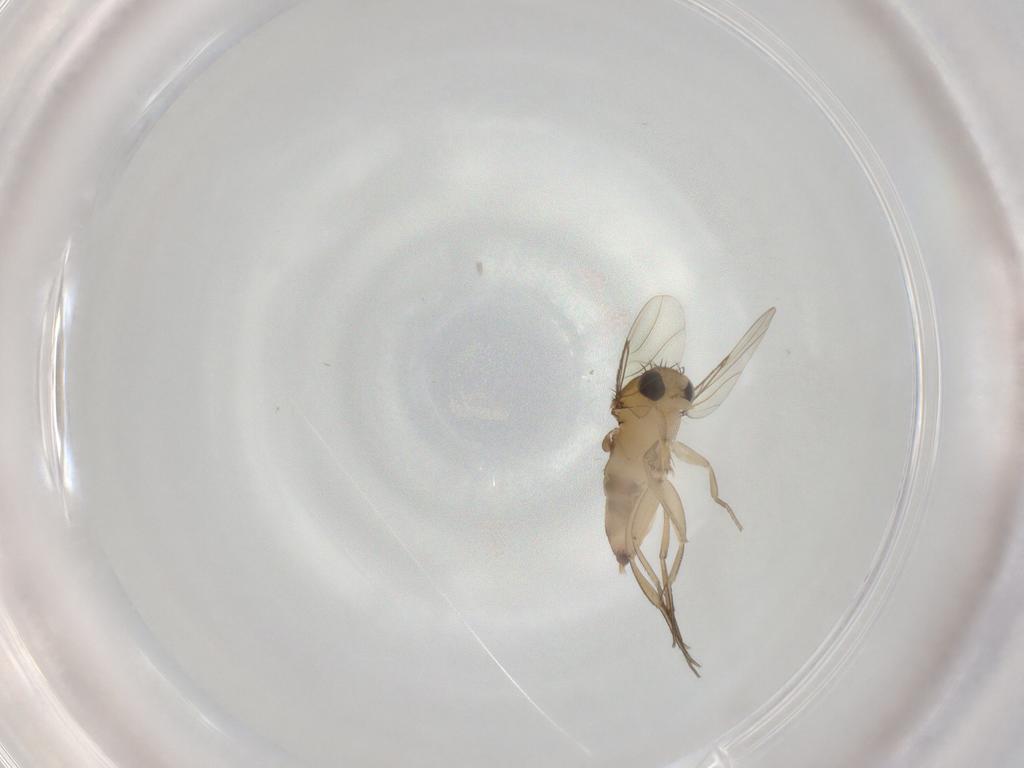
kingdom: Animalia
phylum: Arthropoda
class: Insecta
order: Diptera
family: Phoridae
